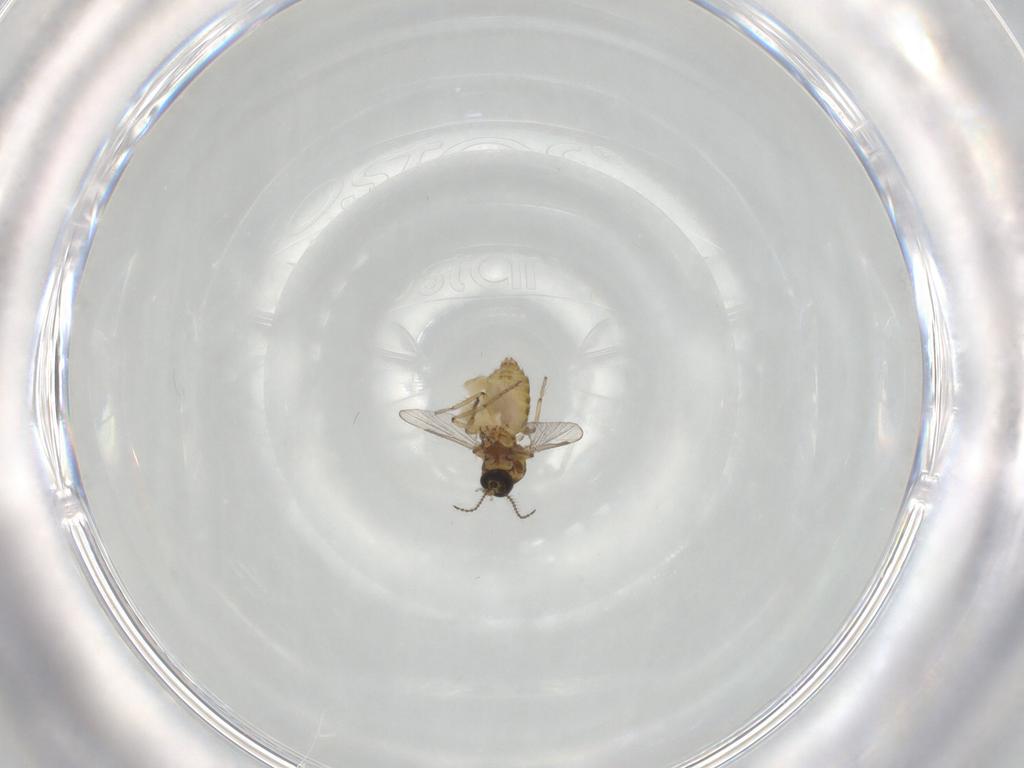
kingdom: Animalia
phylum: Arthropoda
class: Insecta
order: Diptera
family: Ceratopogonidae
